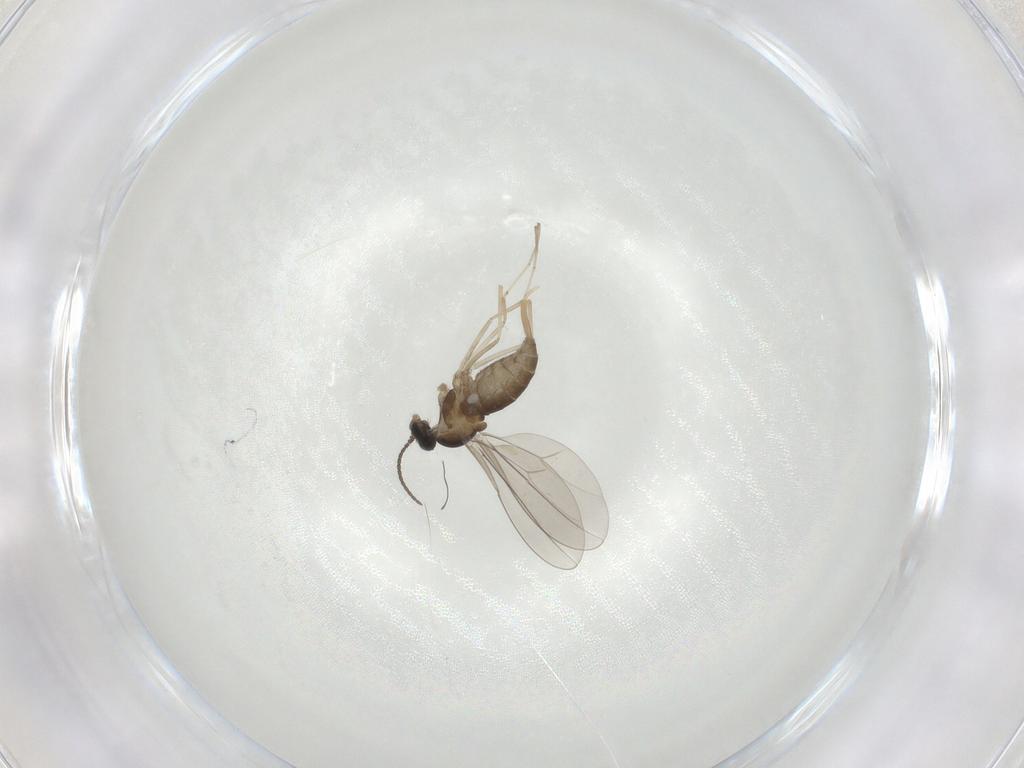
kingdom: Animalia
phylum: Arthropoda
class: Insecta
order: Diptera
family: Cecidomyiidae
